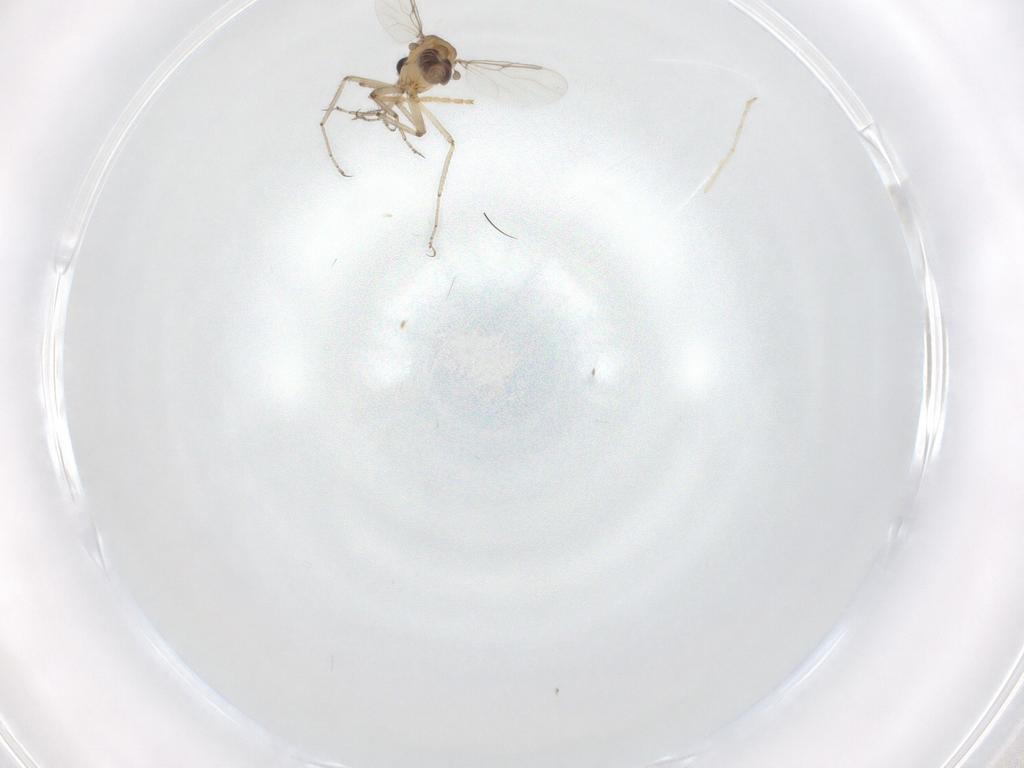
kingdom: Animalia
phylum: Arthropoda
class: Insecta
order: Diptera
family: Chironomidae
